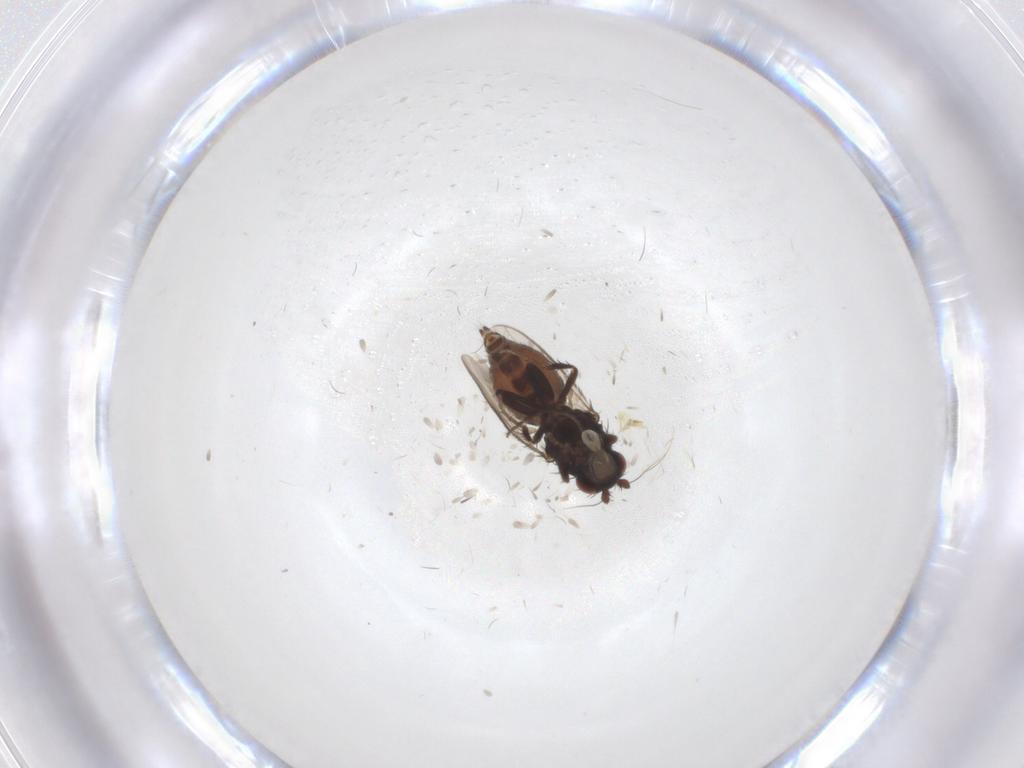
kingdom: Animalia
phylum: Arthropoda
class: Insecta
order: Diptera
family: Sphaeroceridae
